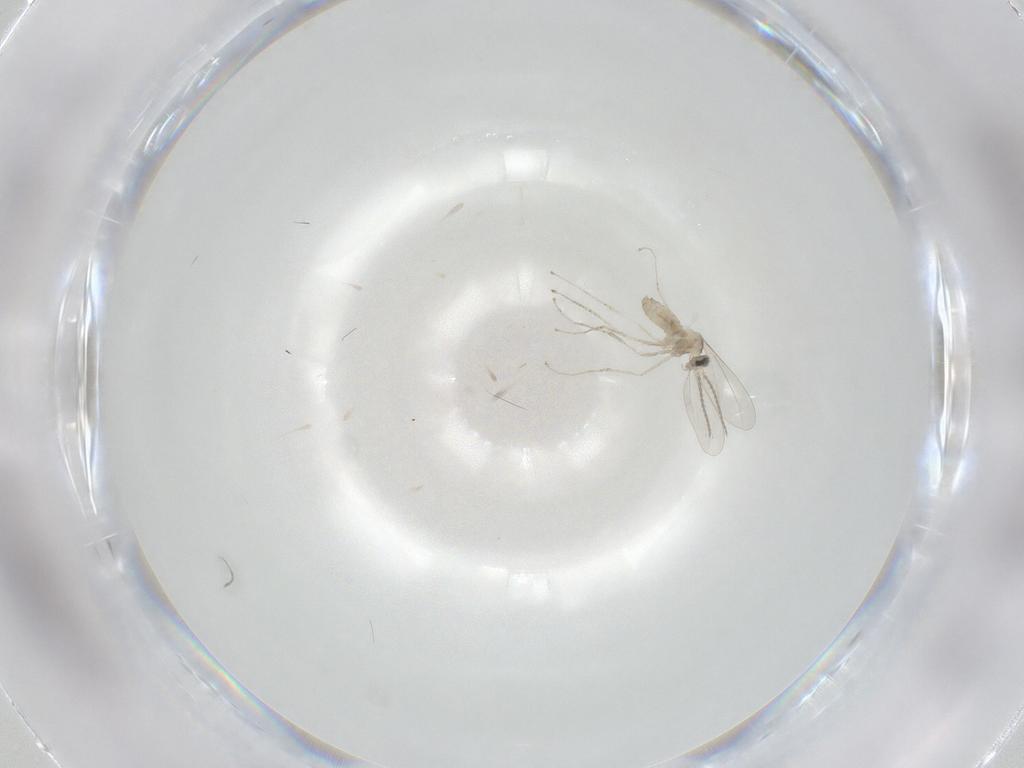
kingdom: Animalia
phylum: Arthropoda
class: Insecta
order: Diptera
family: Cecidomyiidae
